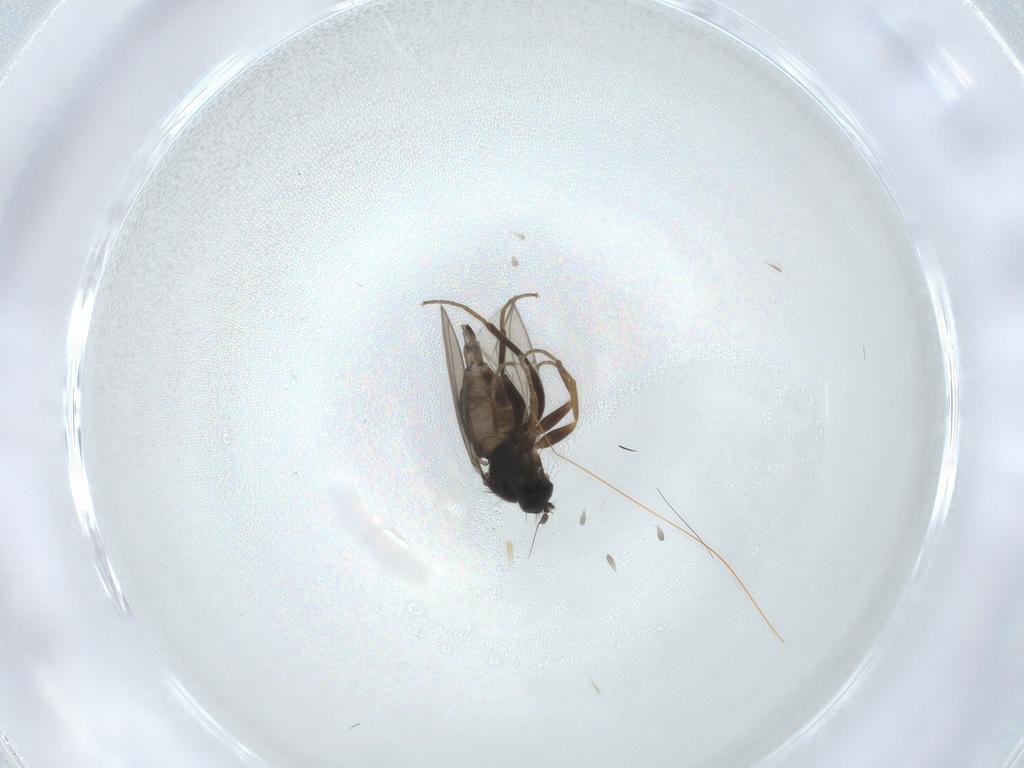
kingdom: Animalia
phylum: Arthropoda
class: Insecta
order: Diptera
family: Hybotidae
